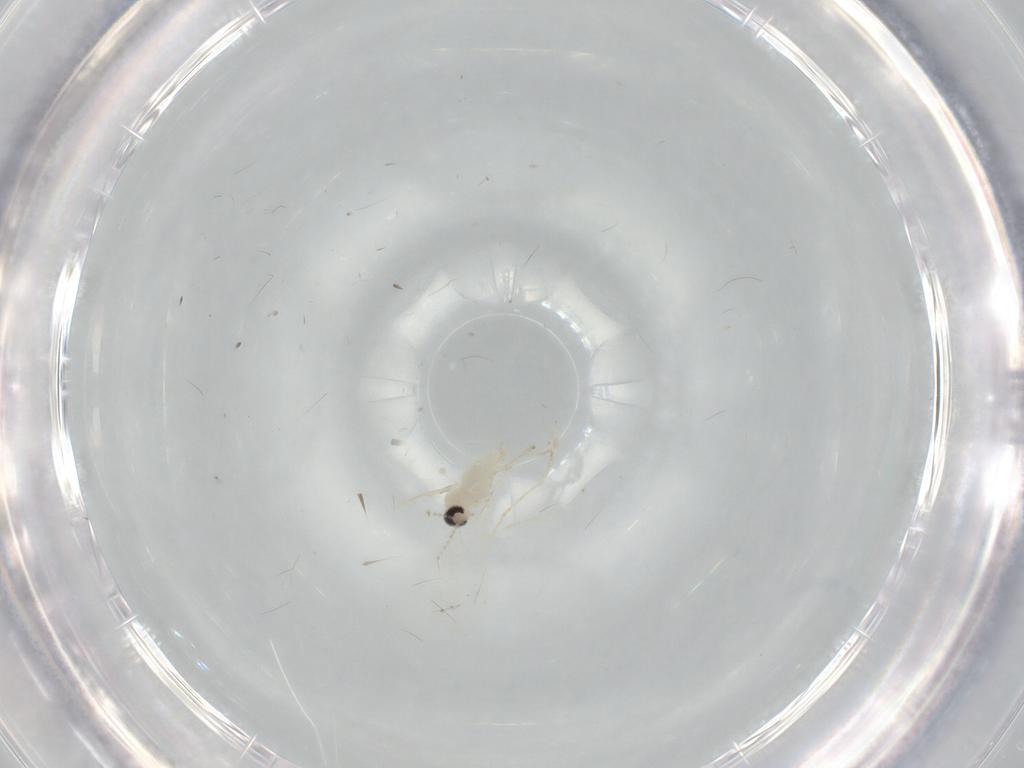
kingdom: Animalia
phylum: Arthropoda
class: Insecta
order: Diptera
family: Cecidomyiidae
